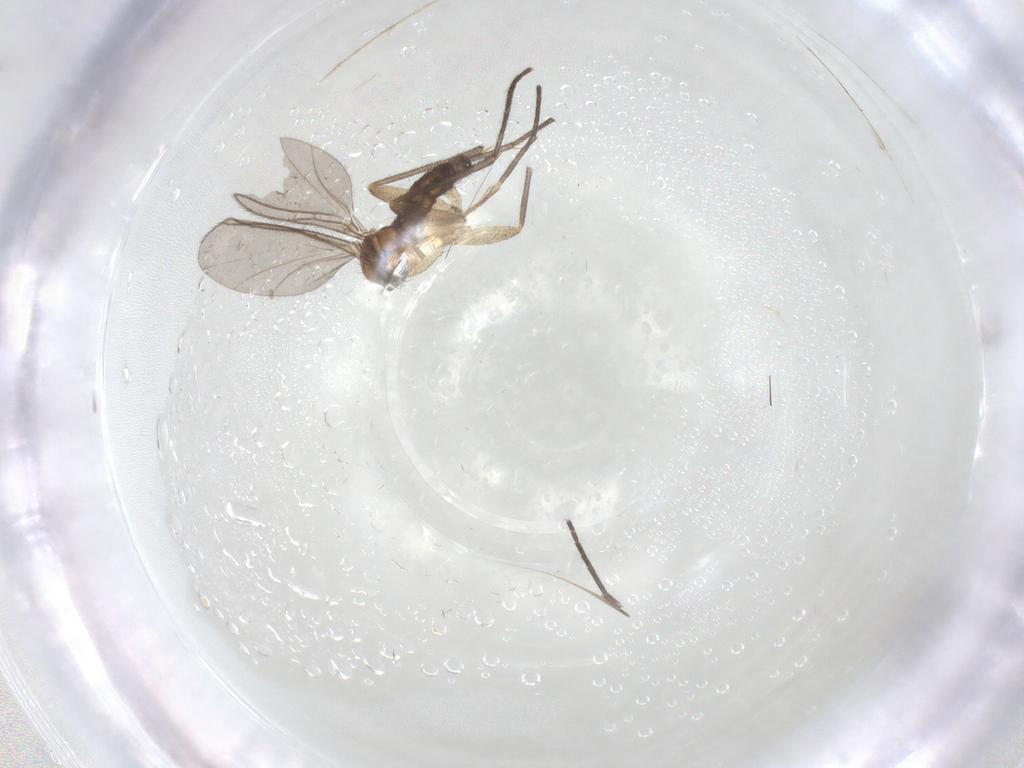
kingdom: Animalia
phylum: Arthropoda
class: Insecta
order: Diptera
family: Sciaridae
